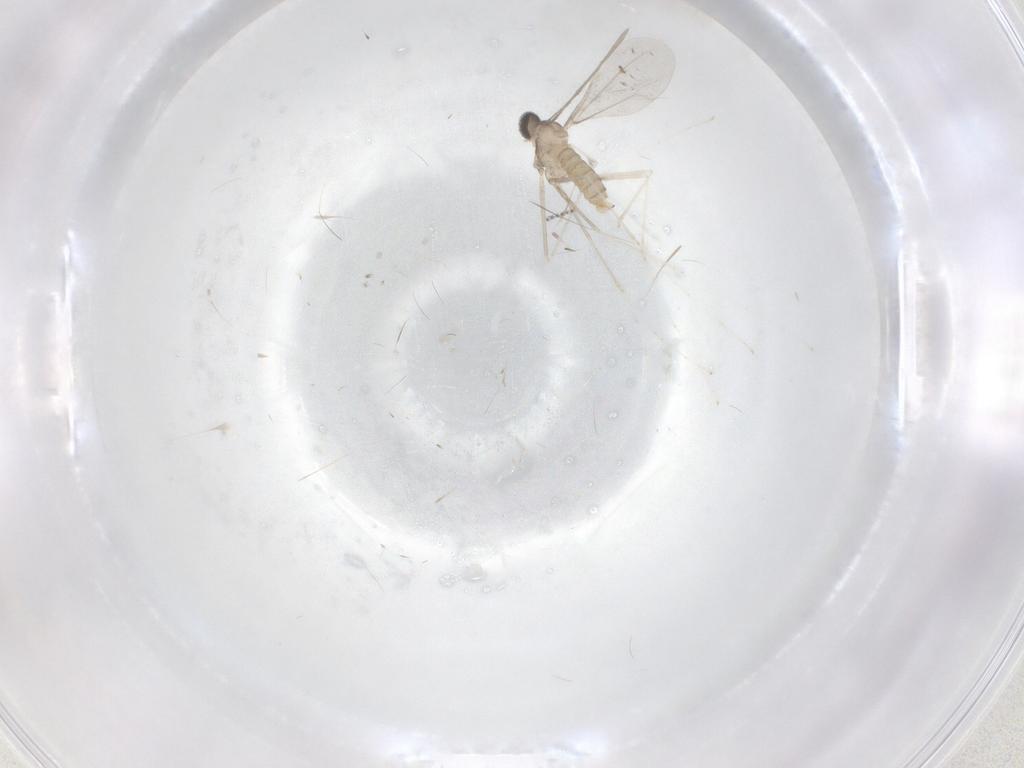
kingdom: Animalia
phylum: Arthropoda
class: Insecta
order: Diptera
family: Cecidomyiidae
